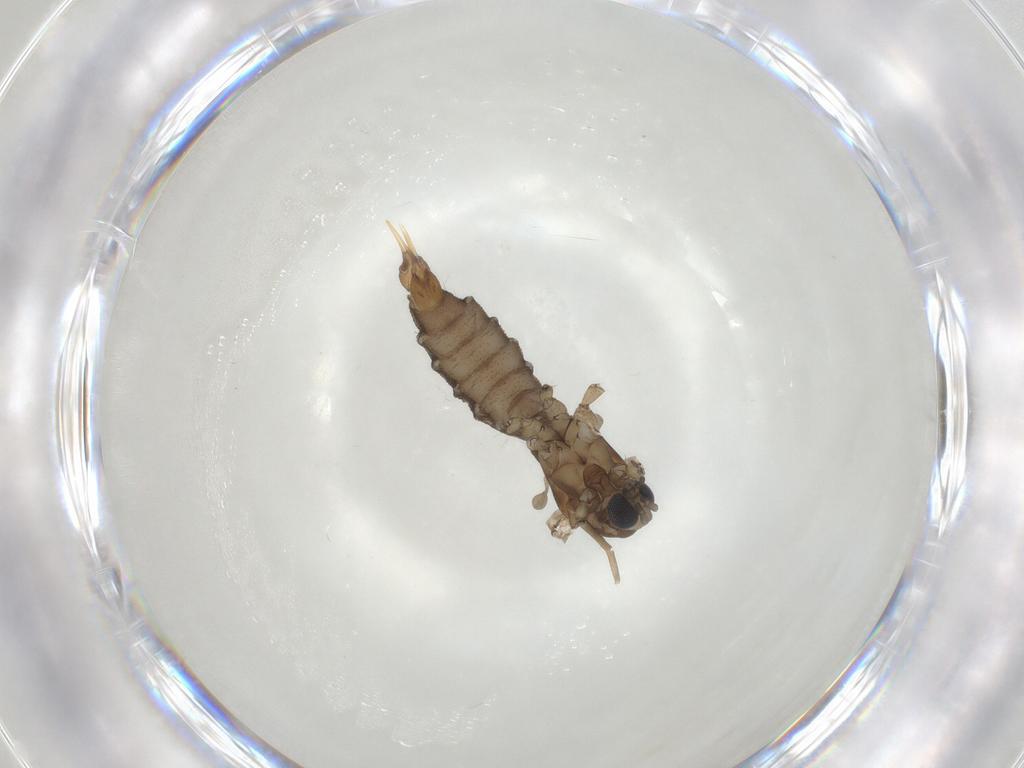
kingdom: Animalia
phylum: Arthropoda
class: Insecta
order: Diptera
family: Limoniidae
